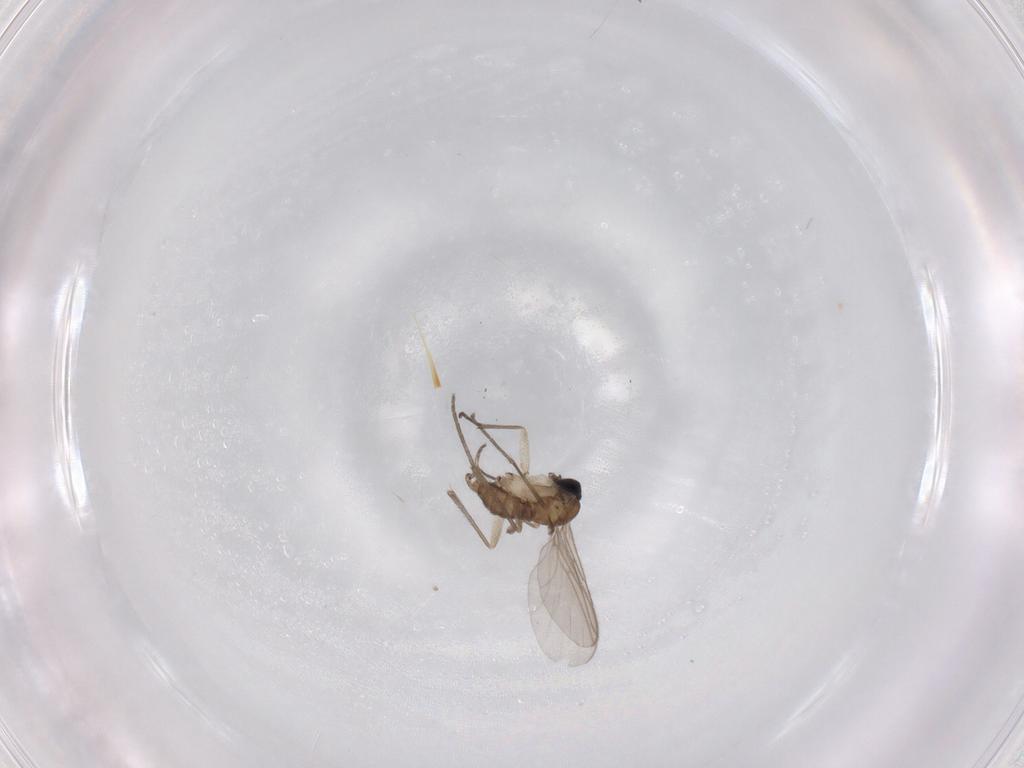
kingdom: Animalia
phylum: Arthropoda
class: Insecta
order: Diptera
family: Sciaridae
